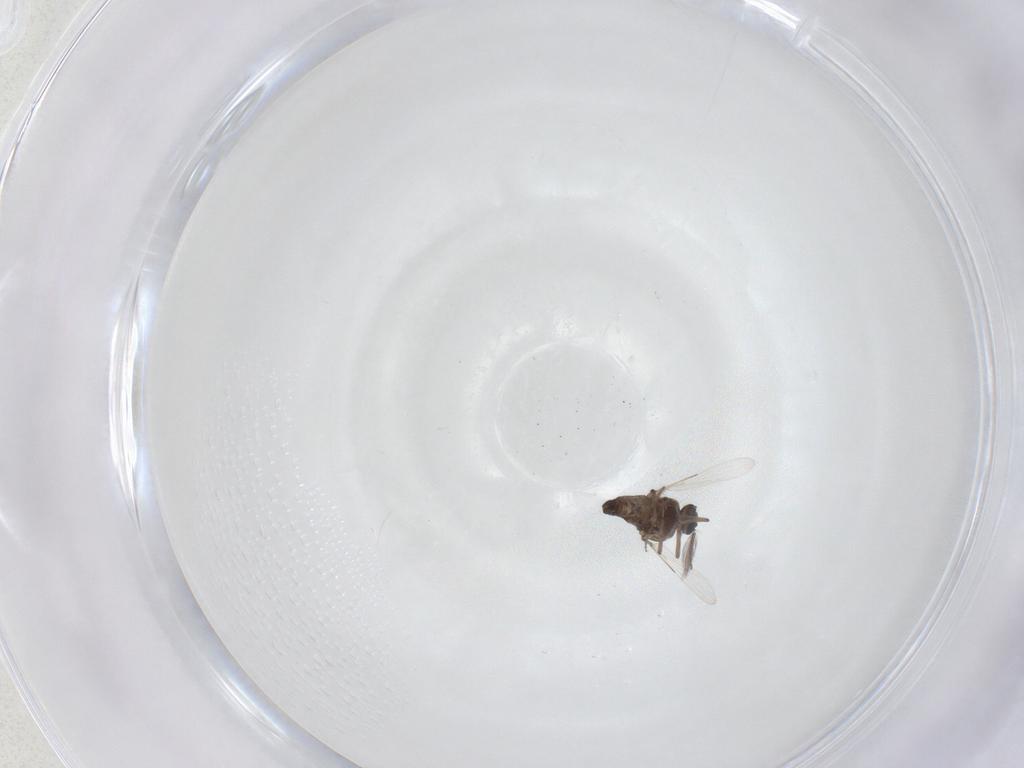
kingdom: Animalia
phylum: Arthropoda
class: Insecta
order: Diptera
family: Ceratopogonidae
